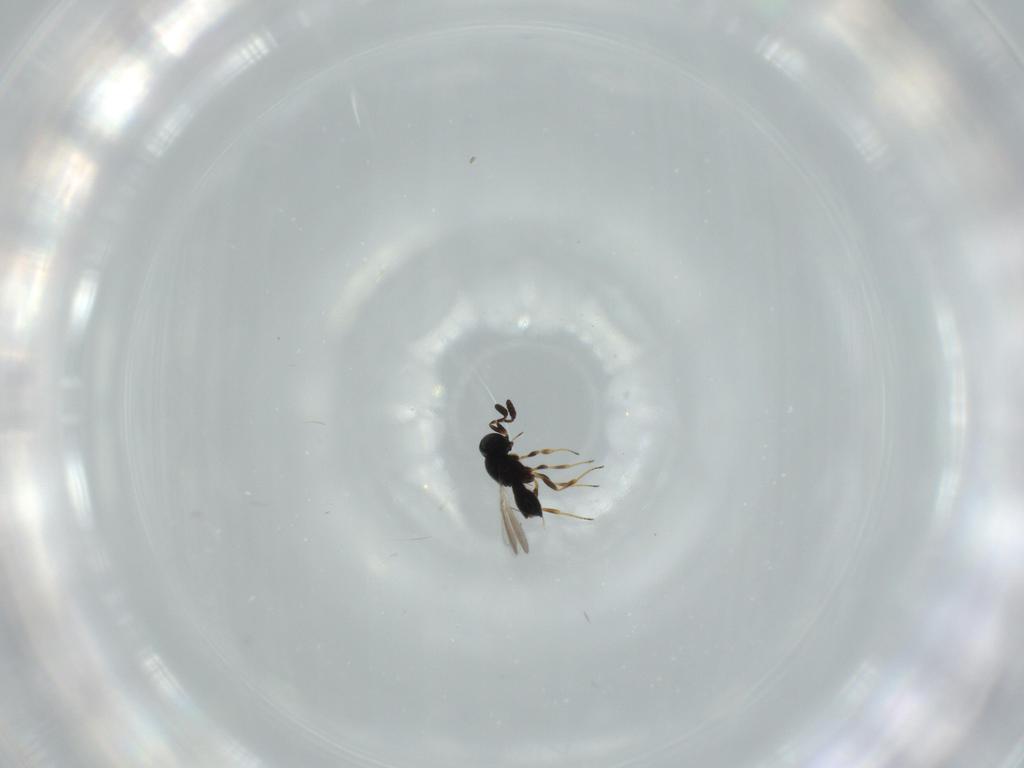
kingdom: Animalia
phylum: Arthropoda
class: Insecta
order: Hymenoptera
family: Scelionidae
